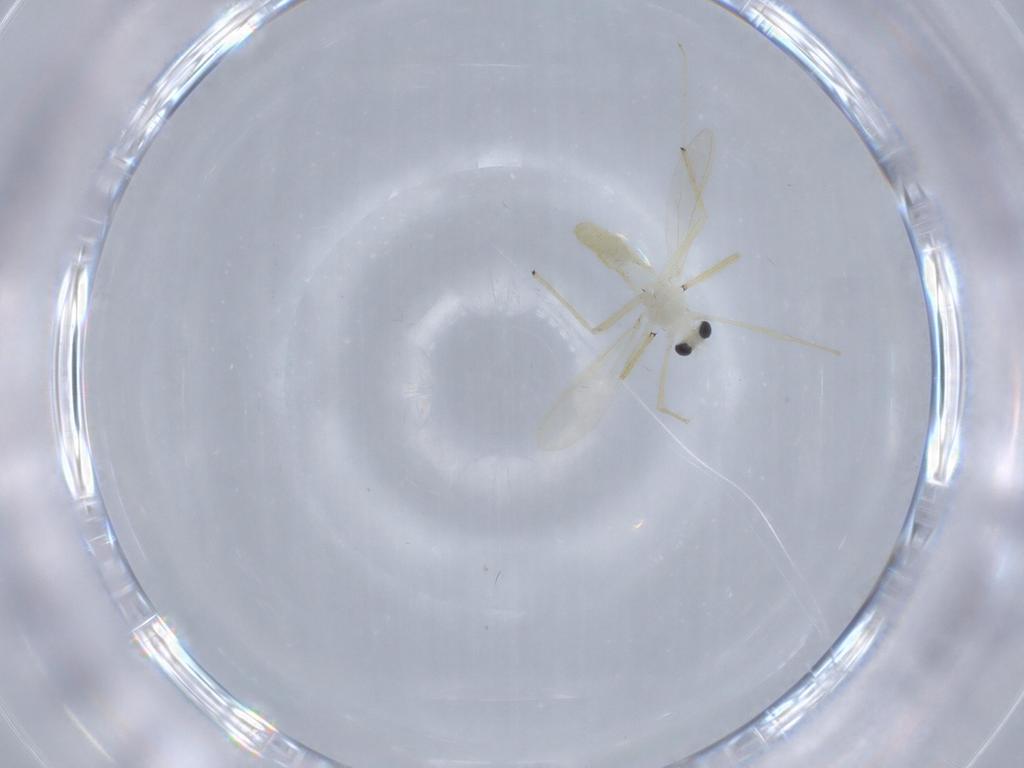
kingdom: Animalia
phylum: Arthropoda
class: Insecta
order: Diptera
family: Chironomidae
